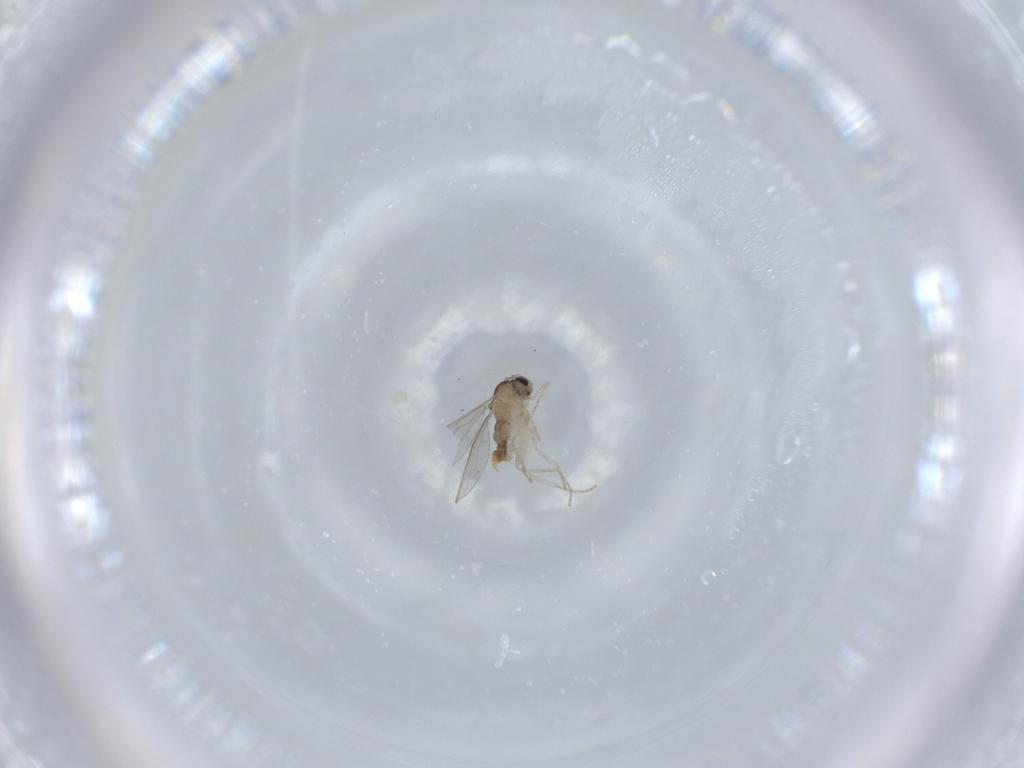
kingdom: Animalia
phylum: Arthropoda
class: Insecta
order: Diptera
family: Cecidomyiidae
